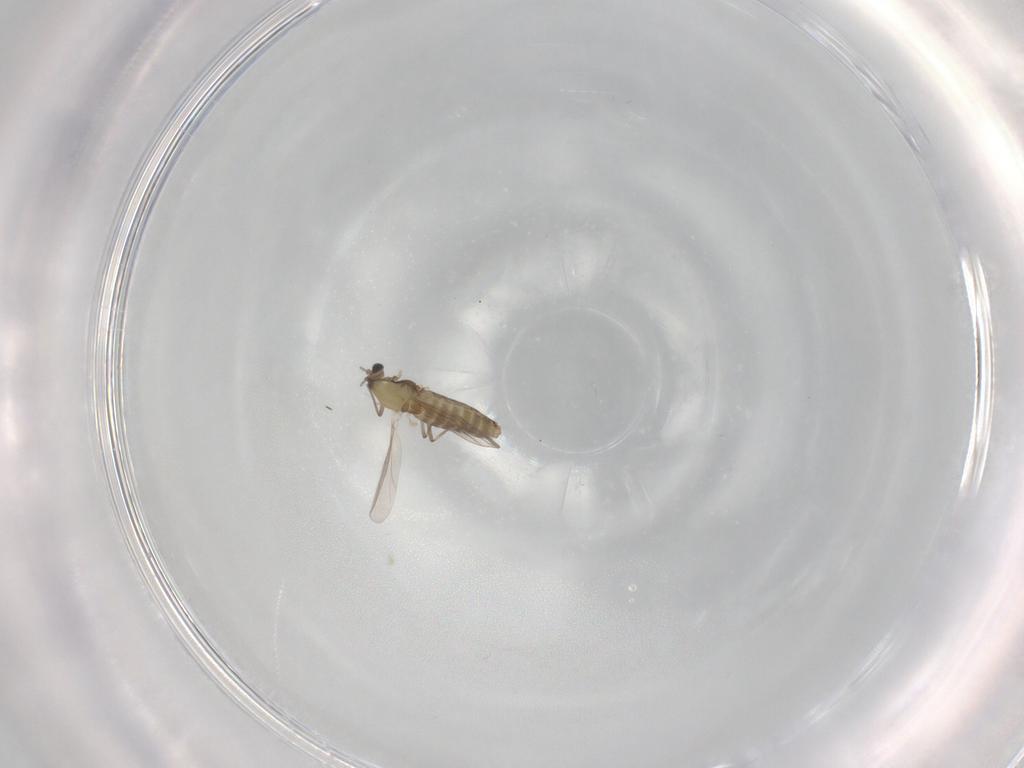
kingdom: Animalia
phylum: Arthropoda
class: Insecta
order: Diptera
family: Chironomidae
